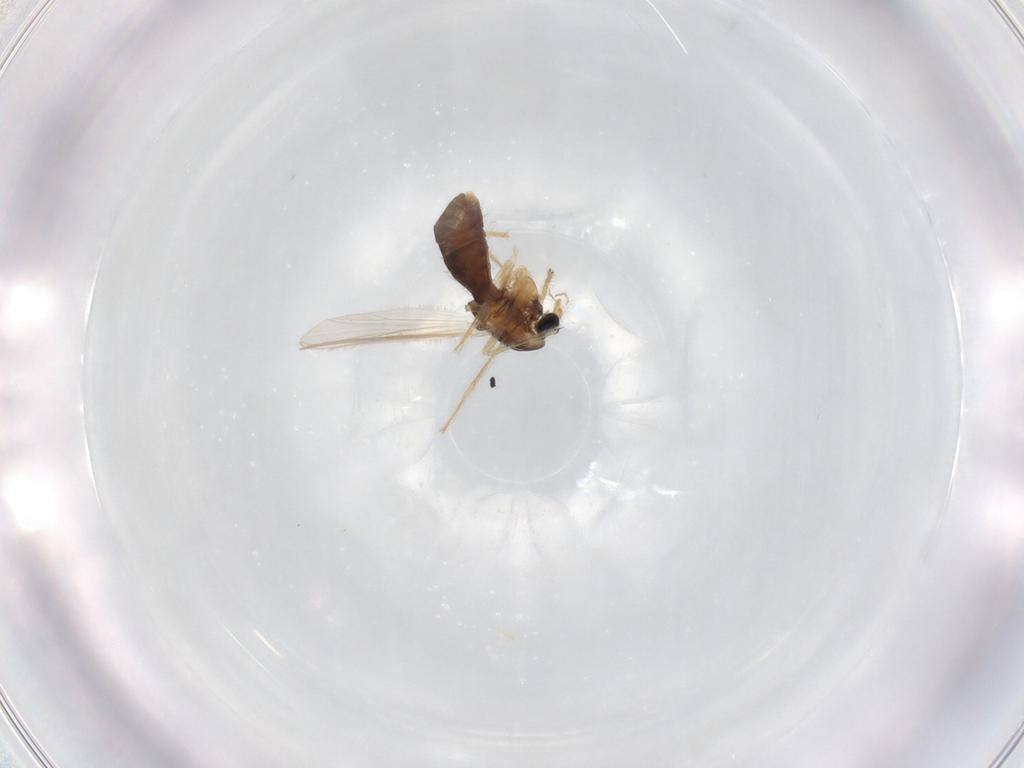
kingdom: Animalia
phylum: Arthropoda
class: Insecta
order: Diptera
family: Chironomidae
